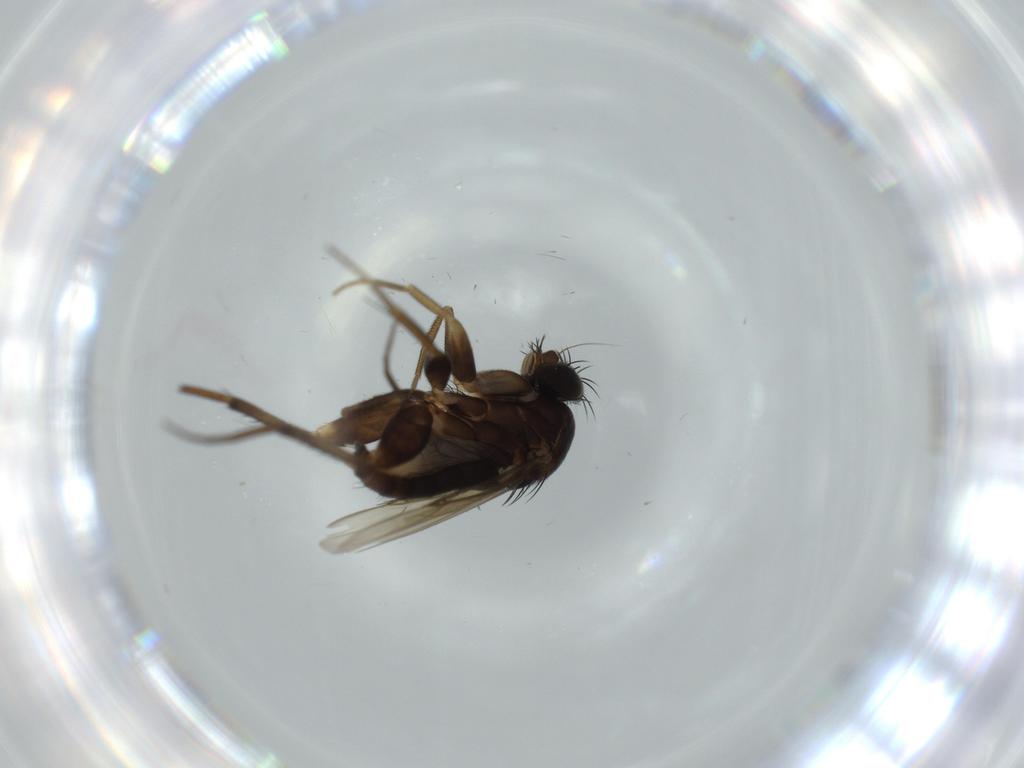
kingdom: Animalia
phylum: Arthropoda
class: Insecta
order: Diptera
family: Phoridae
